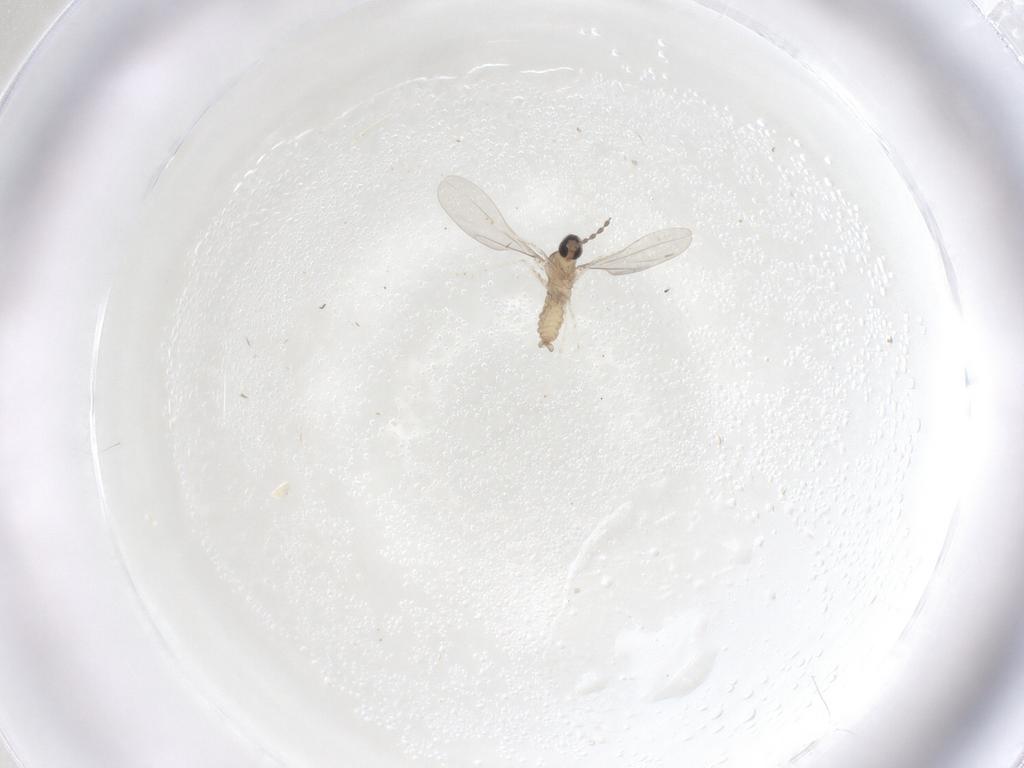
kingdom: Animalia
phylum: Arthropoda
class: Insecta
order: Diptera
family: Cecidomyiidae
